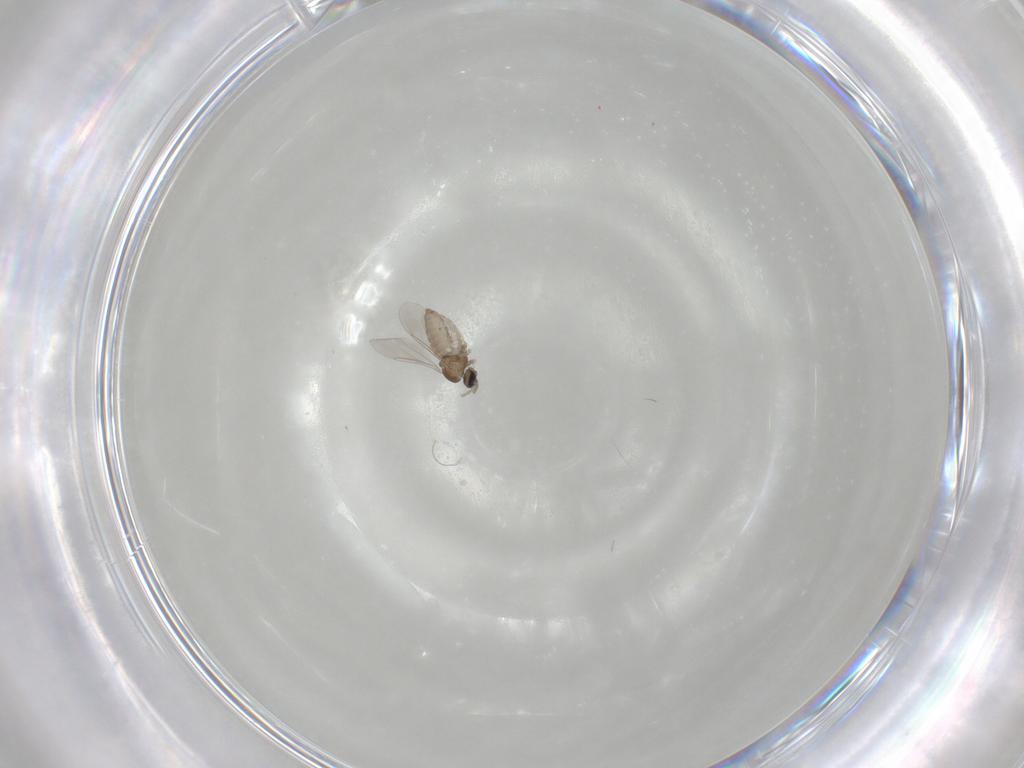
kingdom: Animalia
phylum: Arthropoda
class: Insecta
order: Diptera
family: Cecidomyiidae
